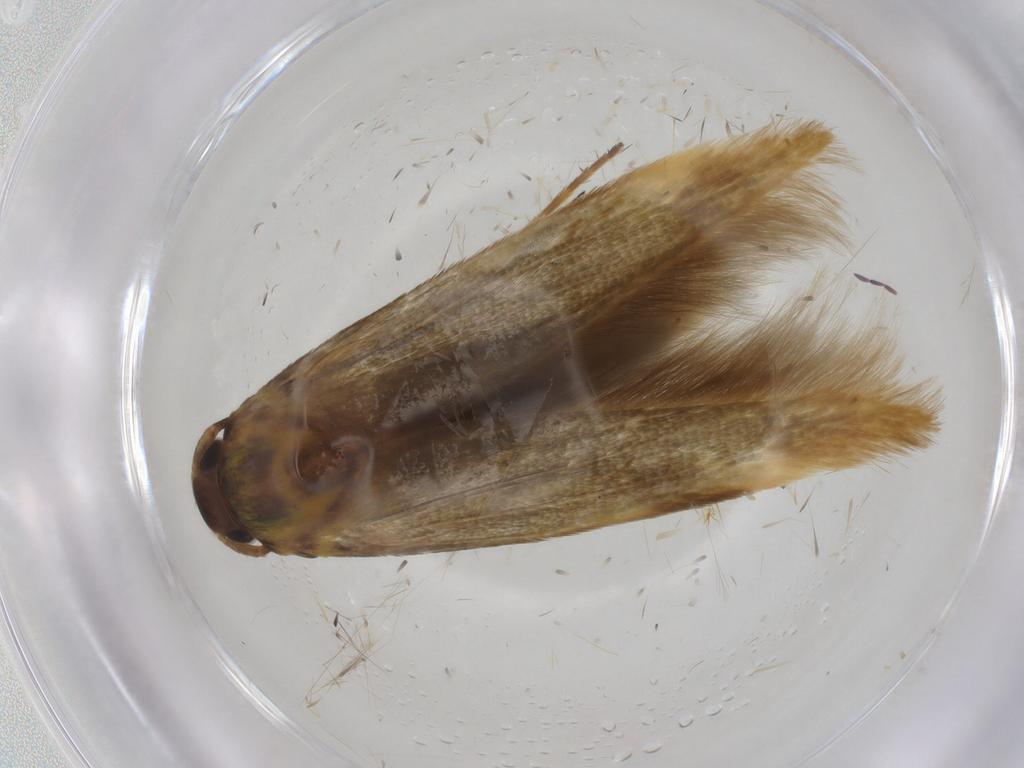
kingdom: Animalia
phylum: Arthropoda
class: Insecta
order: Lepidoptera
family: Stathmopodidae
